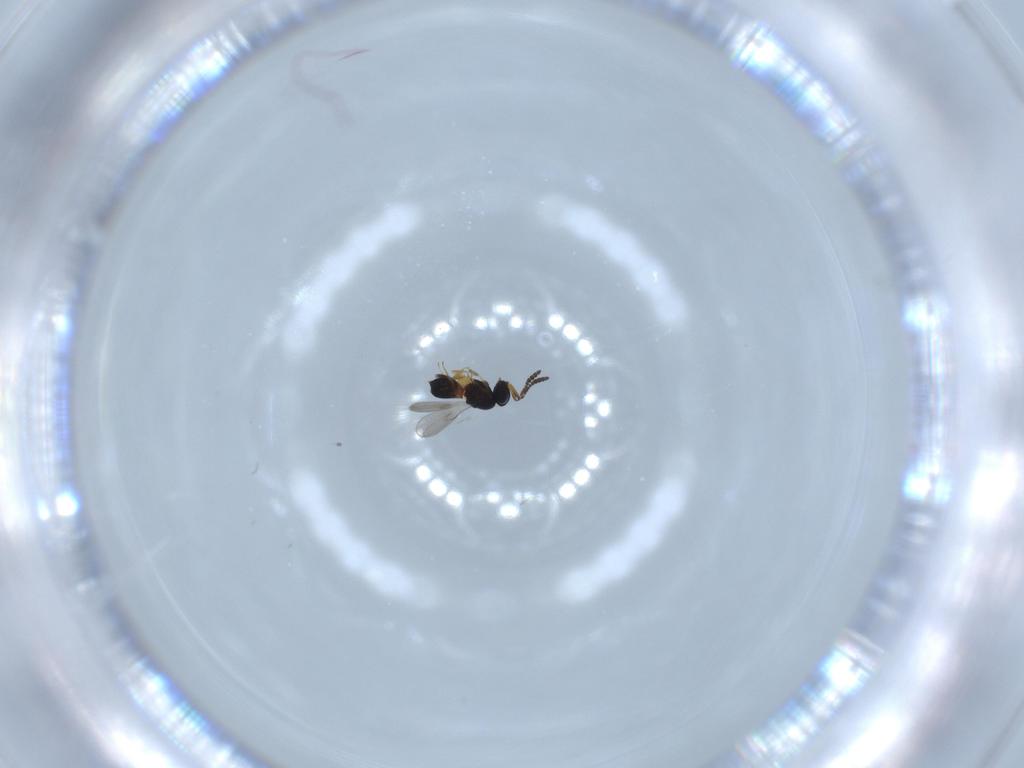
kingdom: Animalia
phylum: Arthropoda
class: Insecta
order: Hymenoptera
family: Scelionidae
